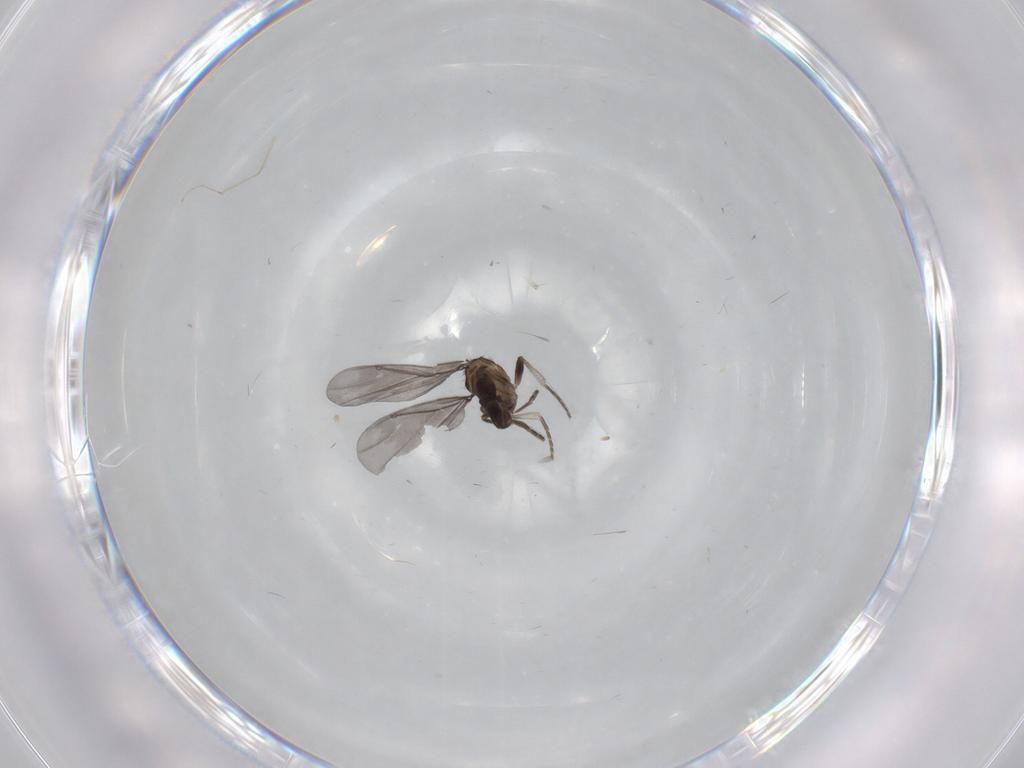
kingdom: Animalia
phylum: Arthropoda
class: Insecta
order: Diptera
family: Phoridae
